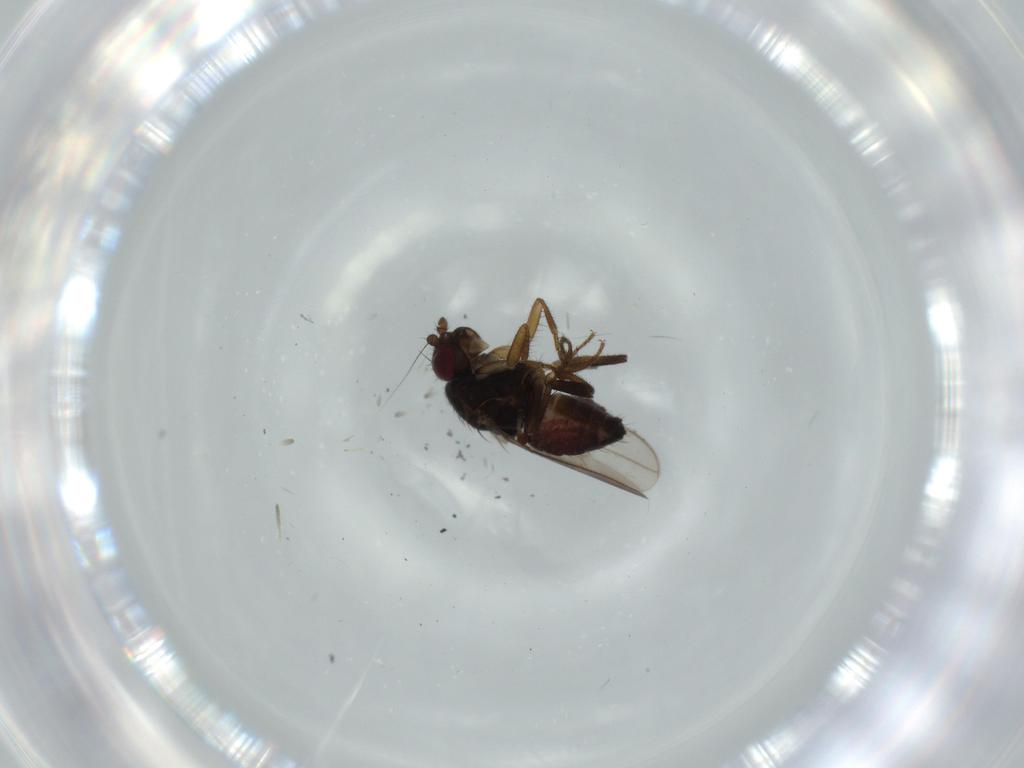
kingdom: Animalia
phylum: Arthropoda
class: Insecta
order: Diptera
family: Sphaeroceridae
